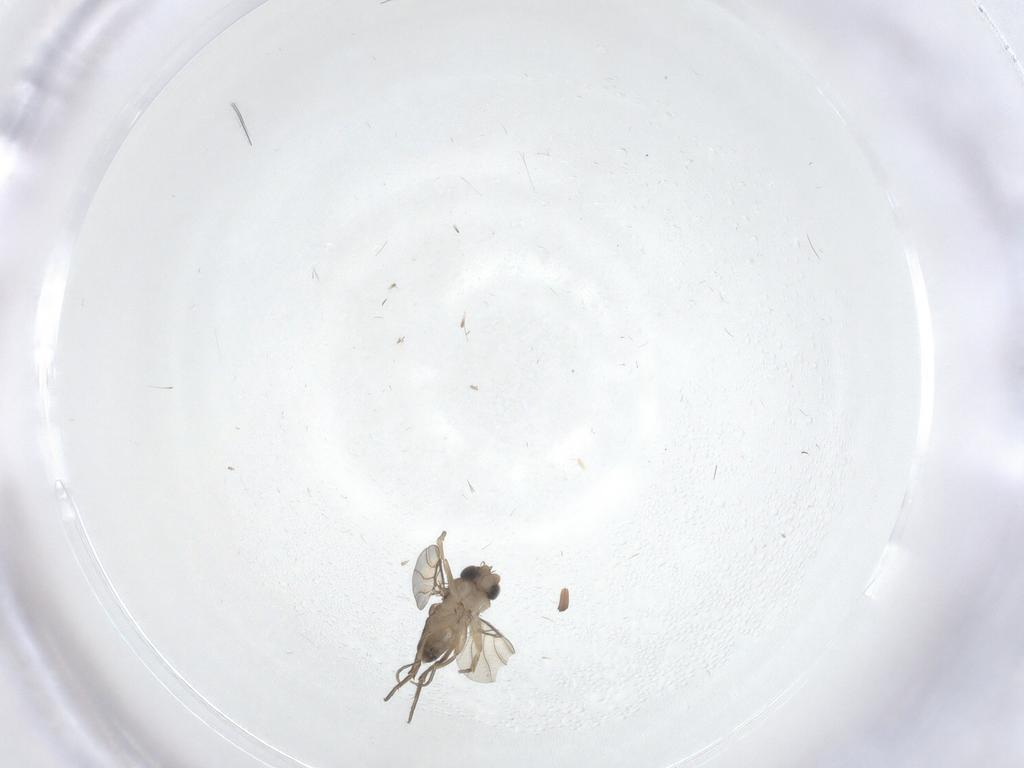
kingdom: Animalia
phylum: Arthropoda
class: Insecta
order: Diptera
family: Phoridae
